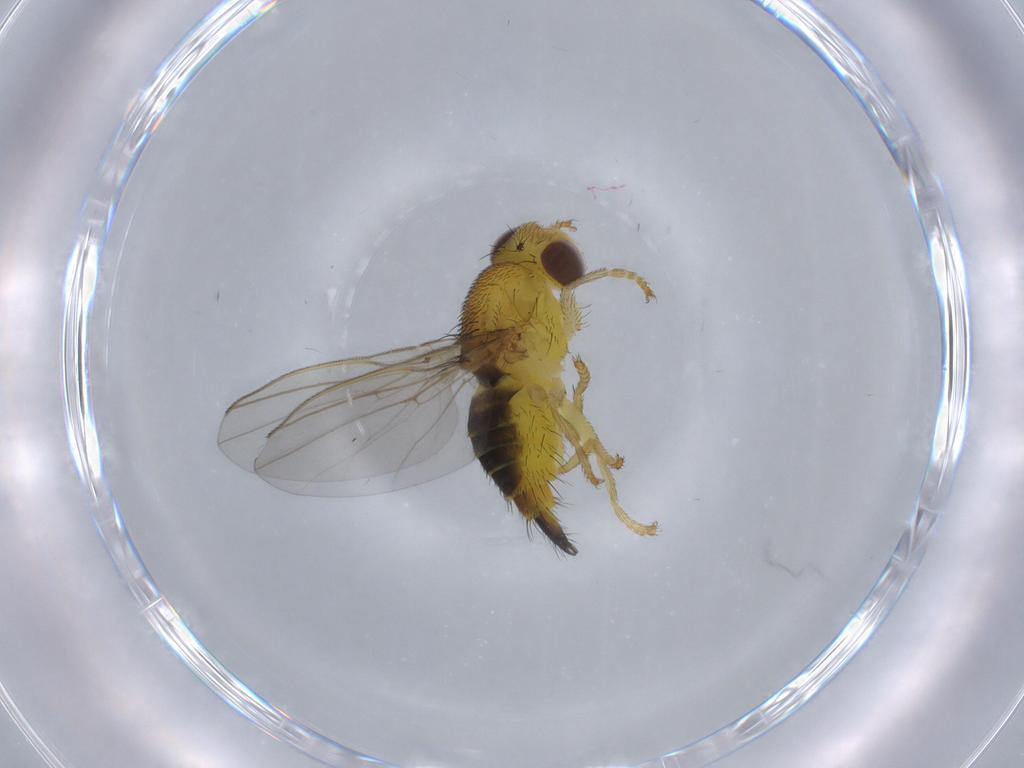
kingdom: Animalia
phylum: Arthropoda
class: Insecta
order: Diptera
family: Fergusoninidae
